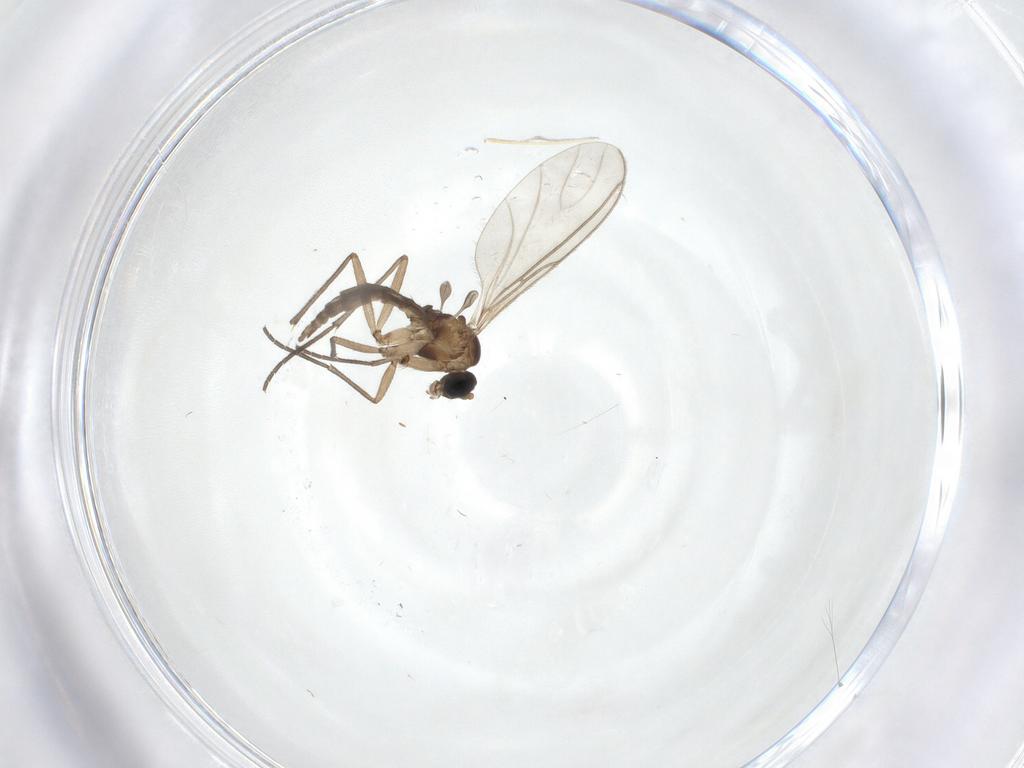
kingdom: Animalia
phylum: Arthropoda
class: Insecta
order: Diptera
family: Sciaridae
